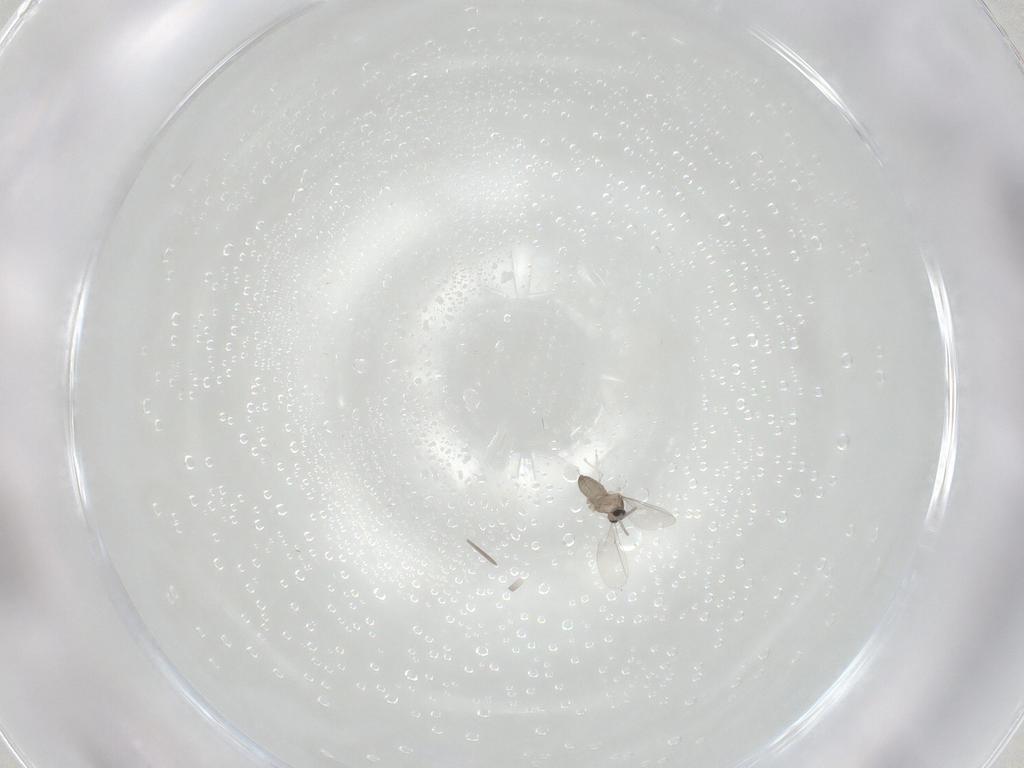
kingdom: Animalia
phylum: Arthropoda
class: Insecta
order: Diptera
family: Cecidomyiidae
